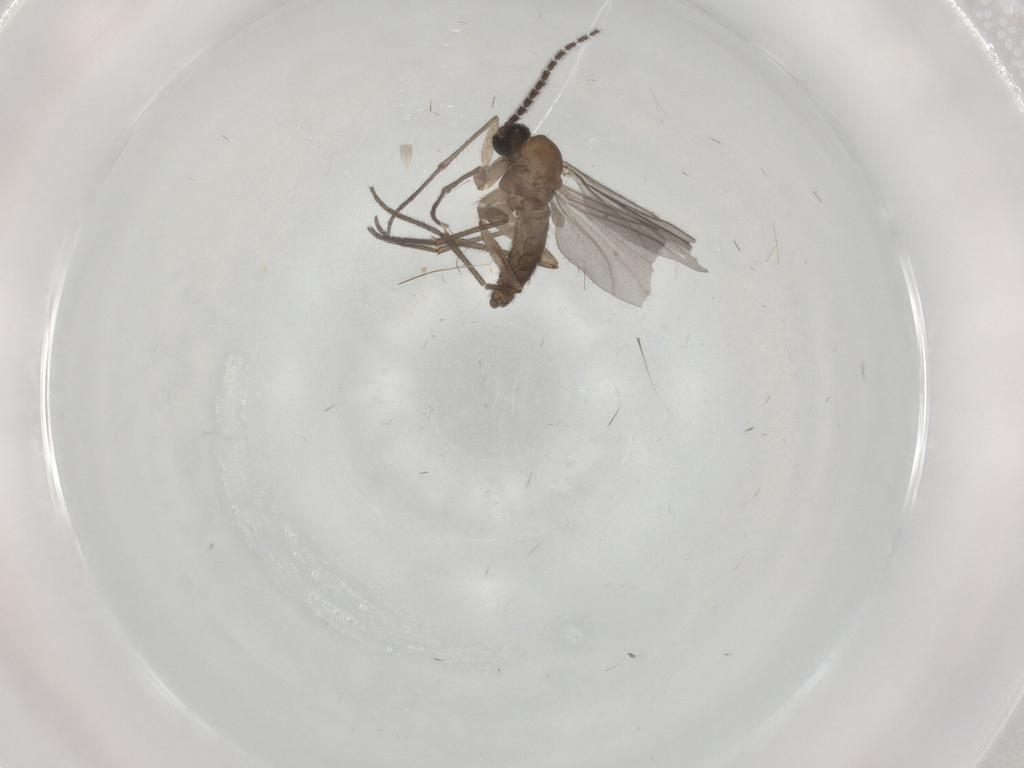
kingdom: Animalia
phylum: Arthropoda
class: Insecta
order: Diptera
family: Sciaridae
